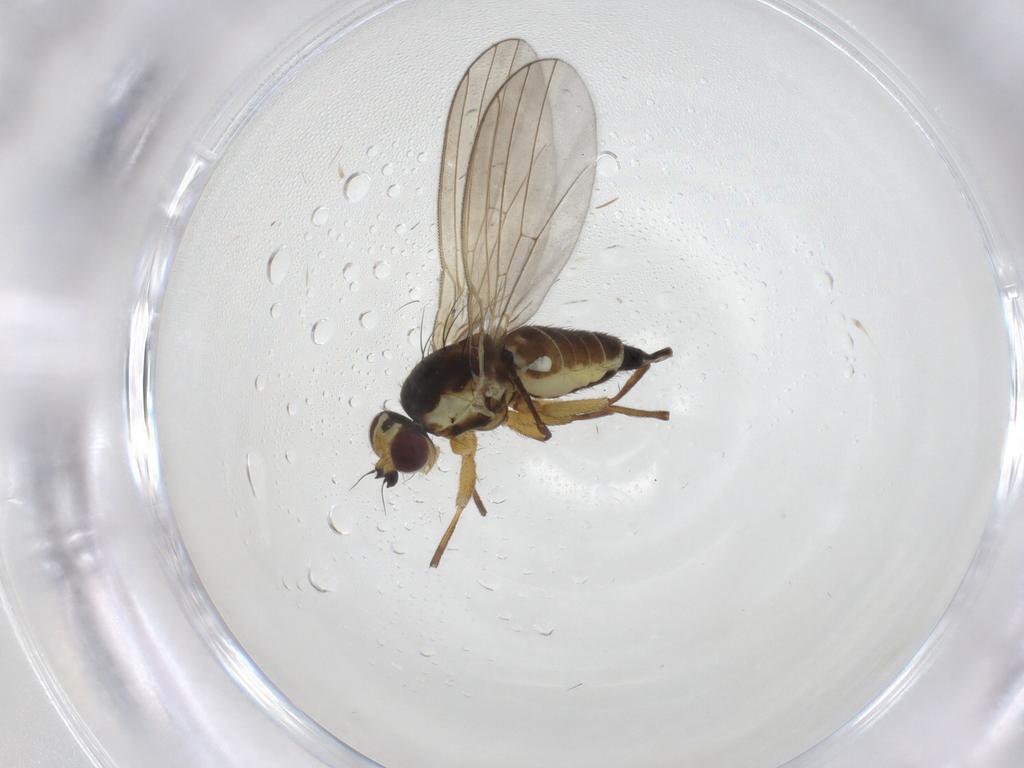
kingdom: Animalia
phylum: Arthropoda
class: Insecta
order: Diptera
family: Agromyzidae
